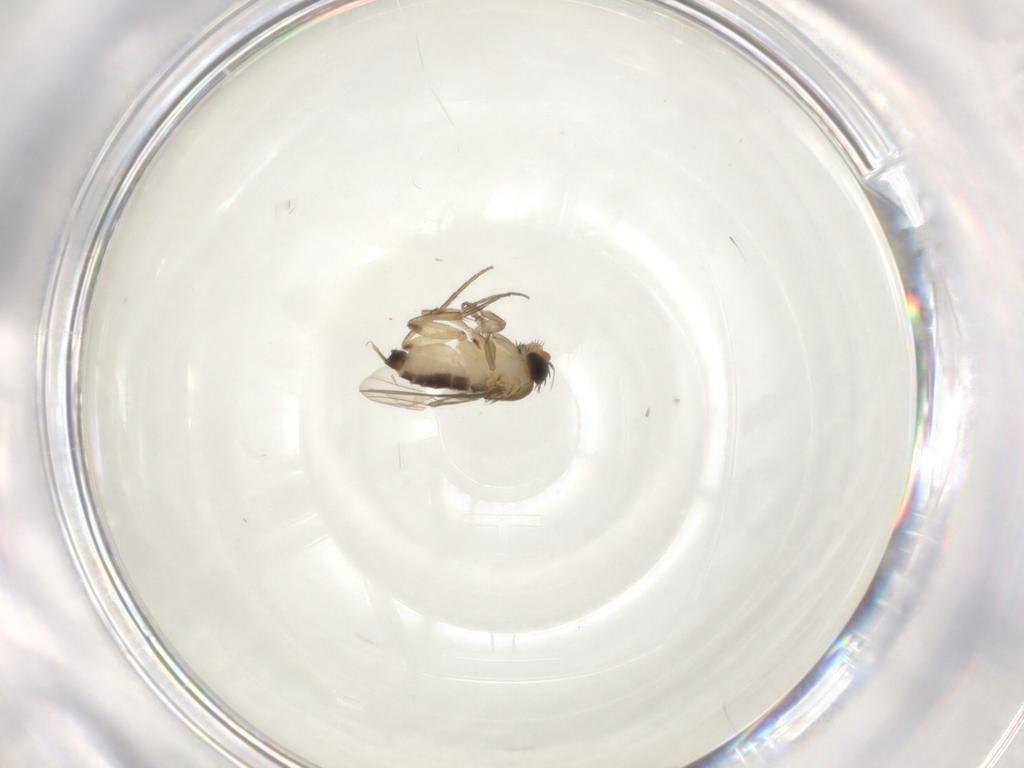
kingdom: Animalia
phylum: Arthropoda
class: Insecta
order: Diptera
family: Phoridae
